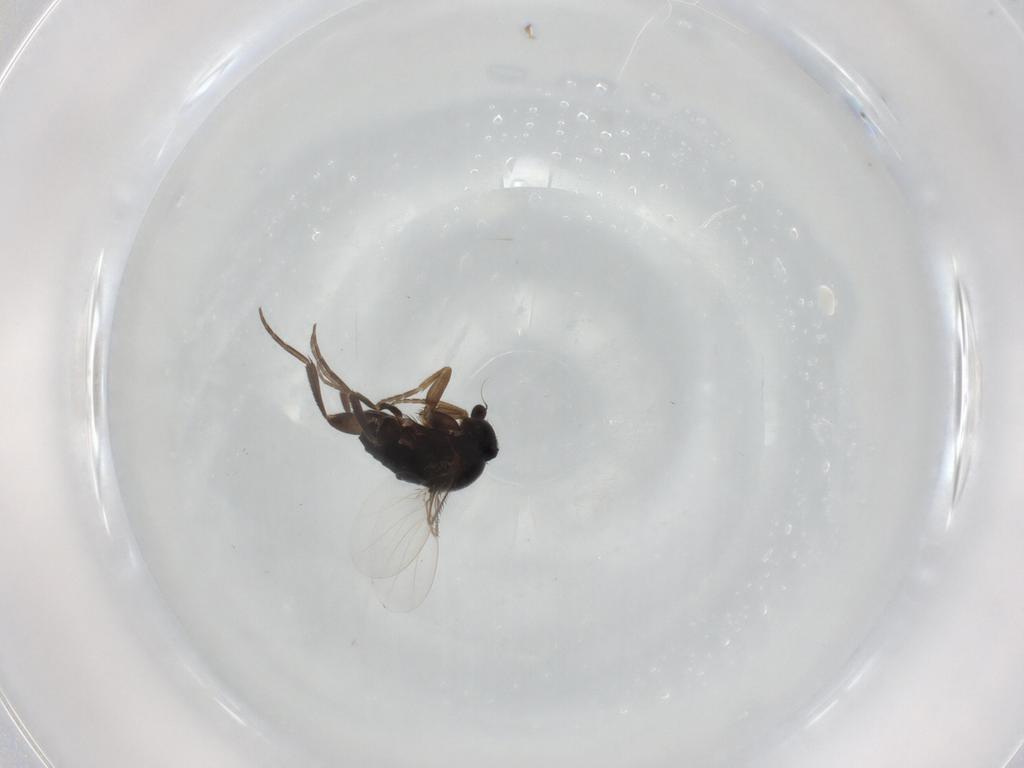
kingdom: Animalia
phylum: Arthropoda
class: Insecta
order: Diptera
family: Phoridae
